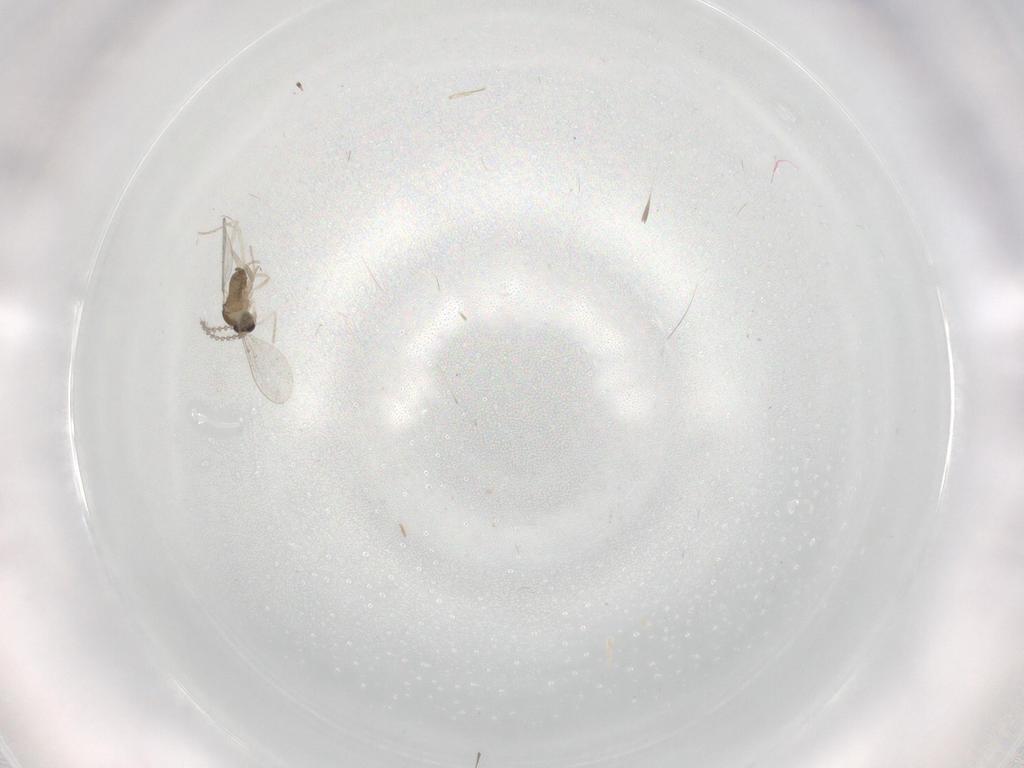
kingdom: Animalia
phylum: Arthropoda
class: Insecta
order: Diptera
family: Cecidomyiidae
